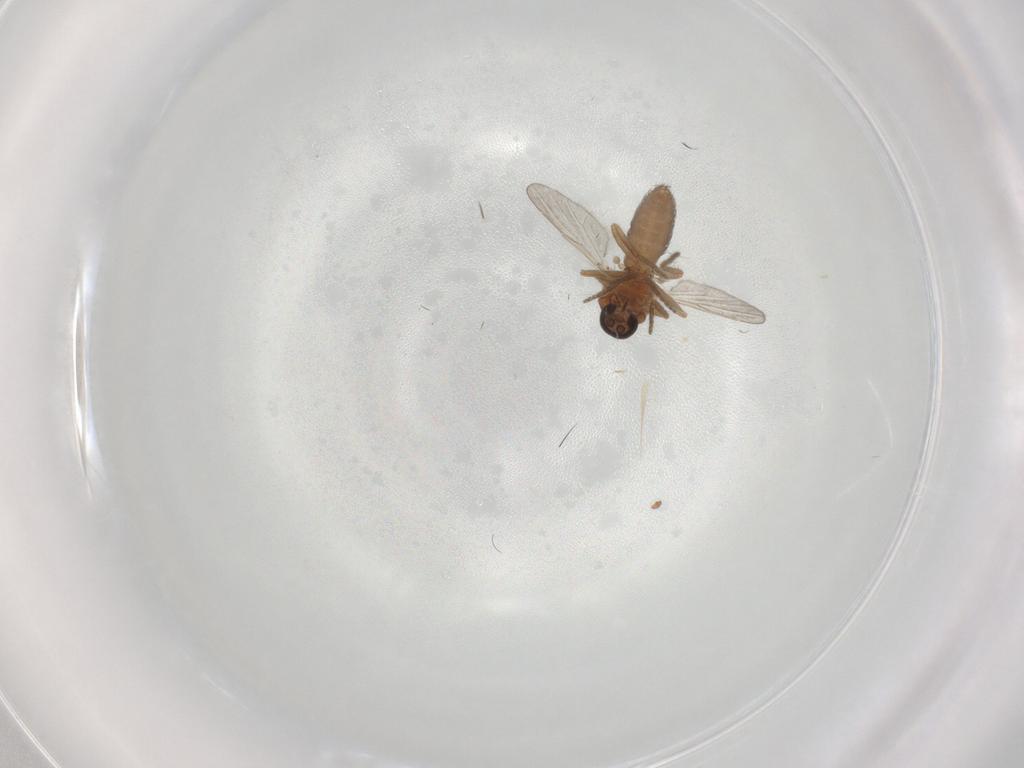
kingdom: Animalia
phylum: Arthropoda
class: Insecta
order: Diptera
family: Ceratopogonidae
